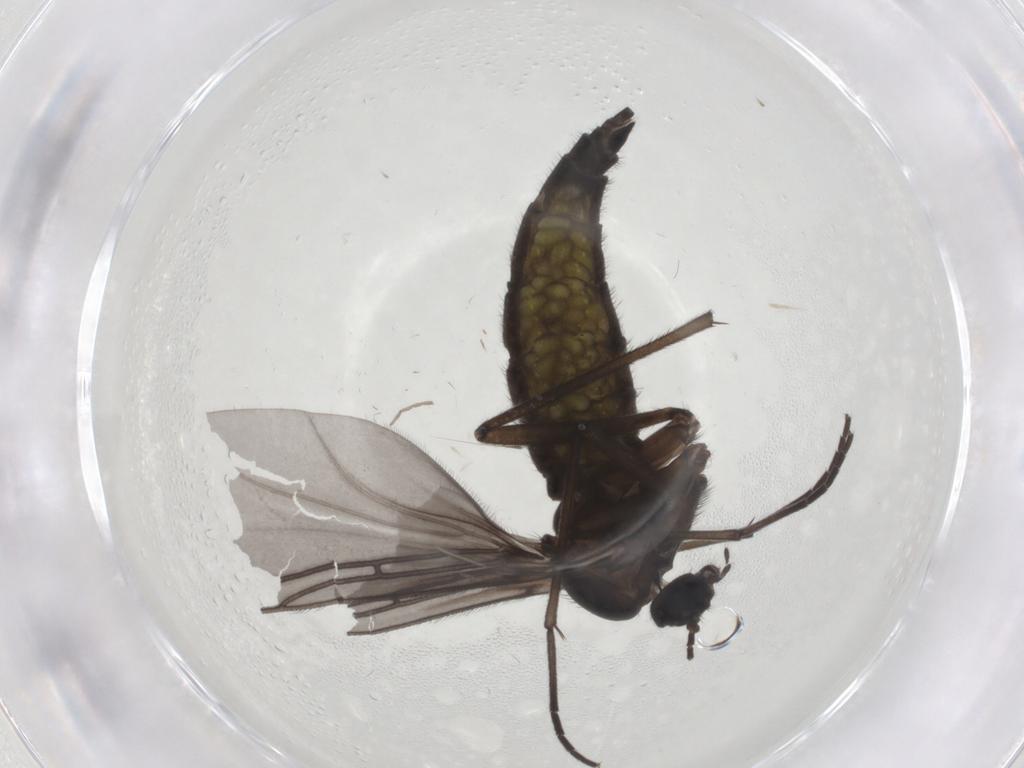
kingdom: Animalia
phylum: Arthropoda
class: Insecta
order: Diptera
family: Sciaridae
